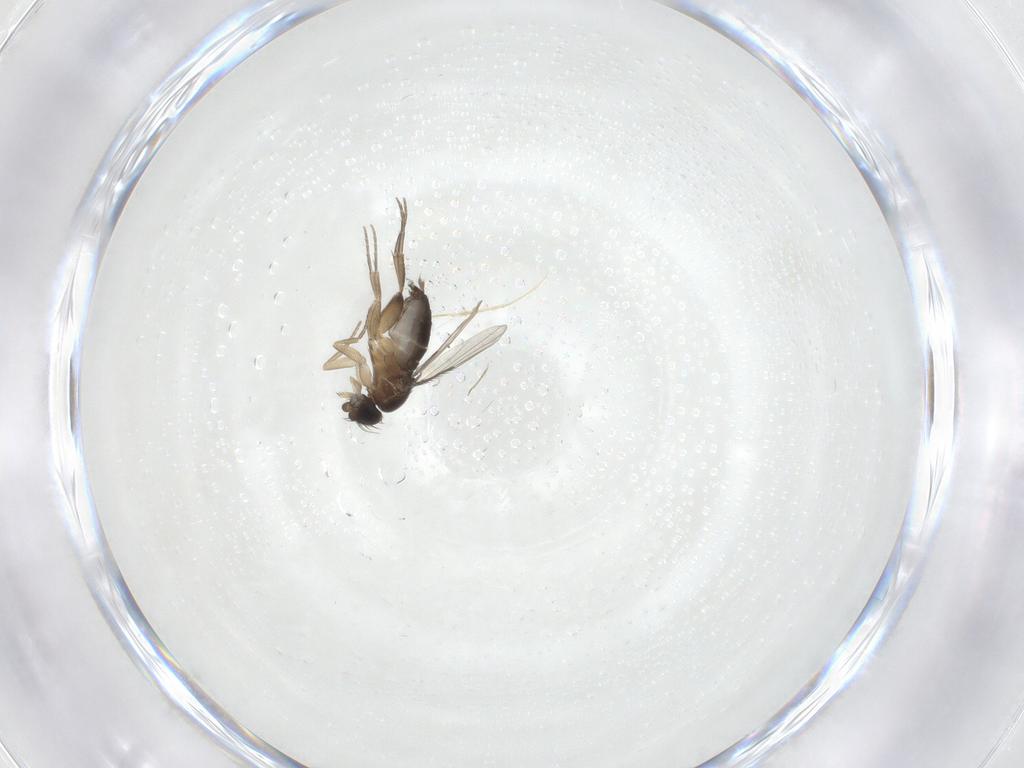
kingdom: Animalia
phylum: Arthropoda
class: Insecta
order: Diptera
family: Phoridae
